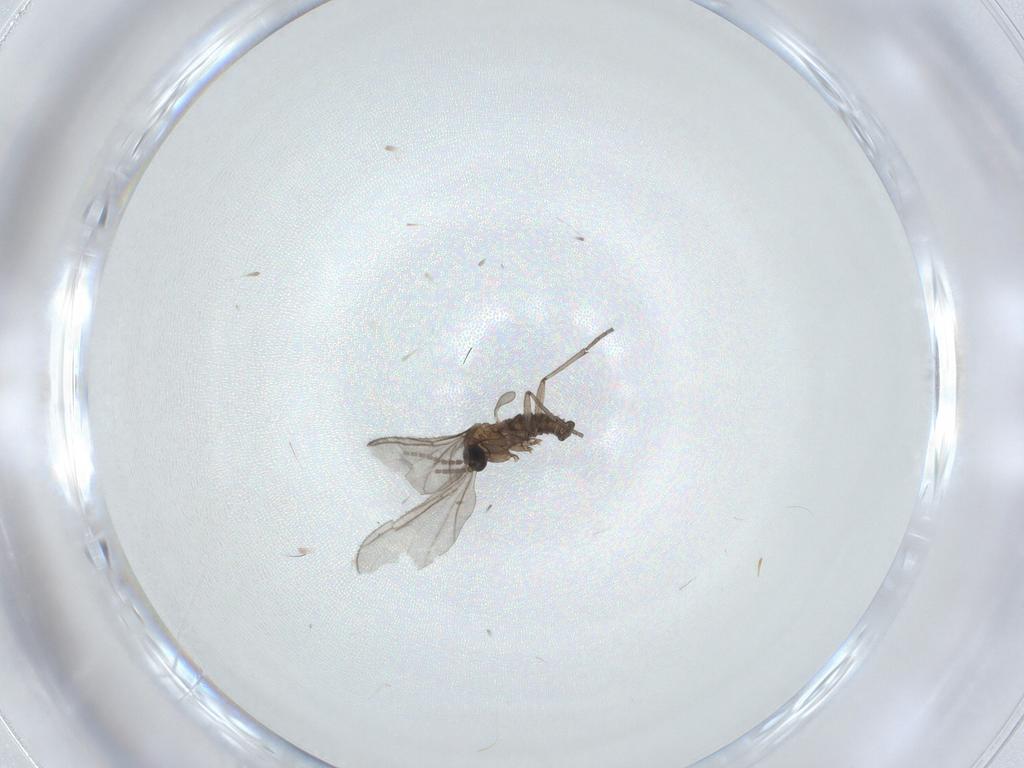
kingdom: Animalia
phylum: Arthropoda
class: Insecta
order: Diptera
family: Sciaridae
